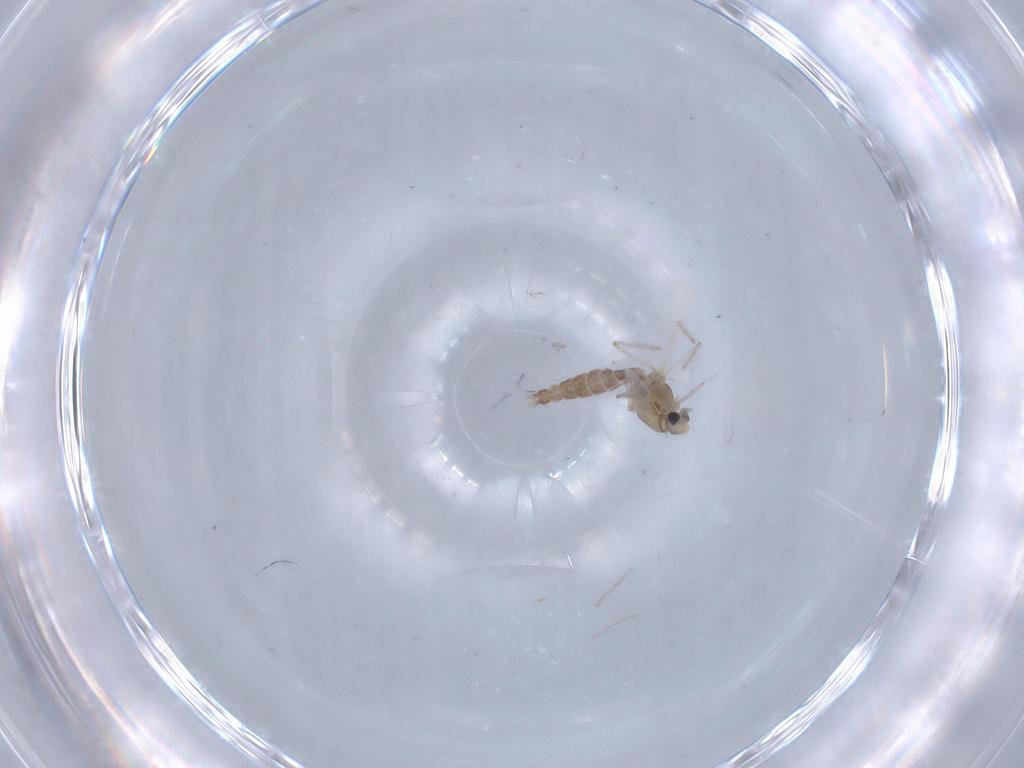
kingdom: Animalia
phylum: Arthropoda
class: Insecta
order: Diptera
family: Chironomidae
